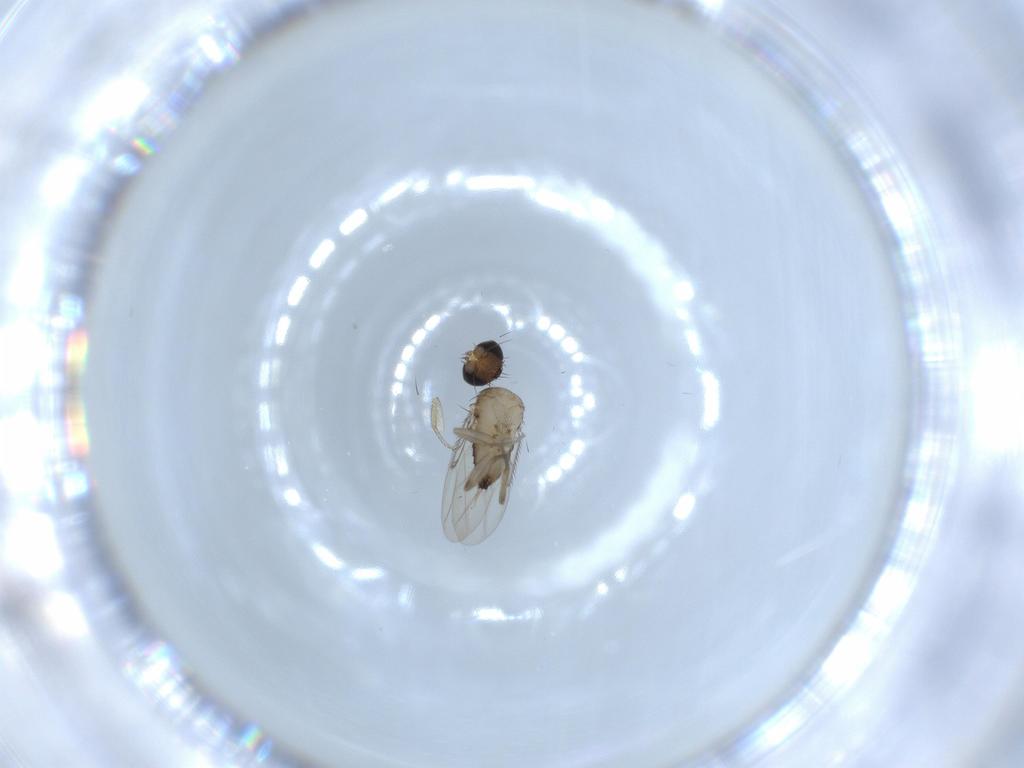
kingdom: Animalia
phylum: Arthropoda
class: Insecta
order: Diptera
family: Phoridae
